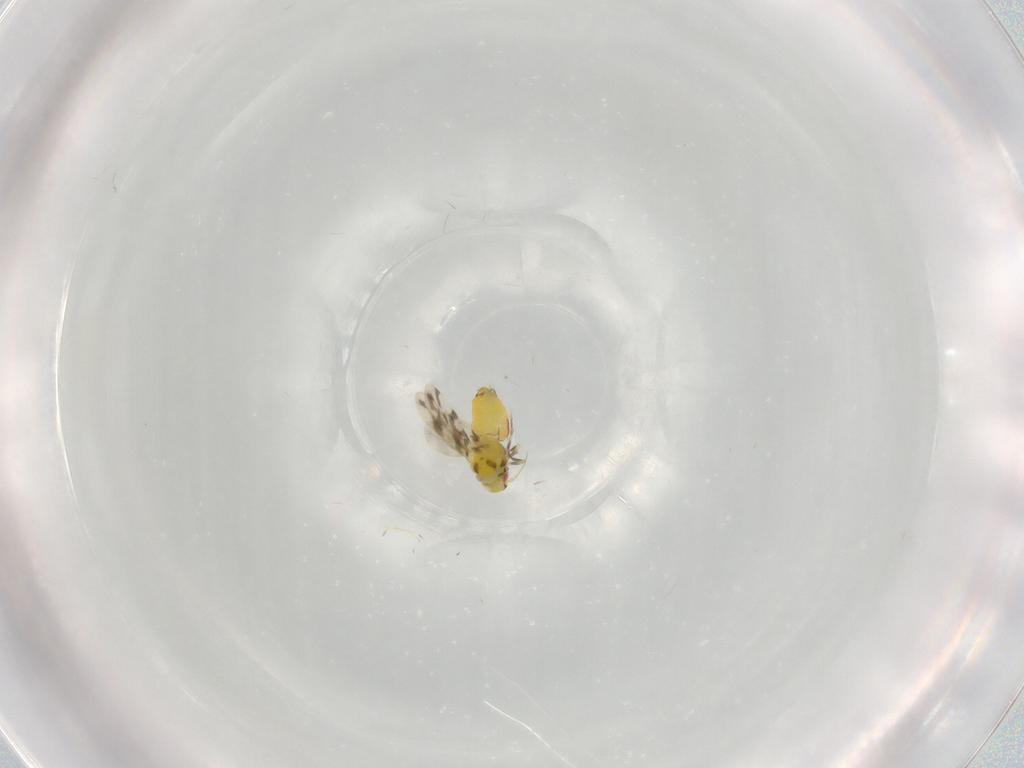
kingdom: Animalia
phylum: Arthropoda
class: Insecta
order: Hemiptera
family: Aleyrodidae
